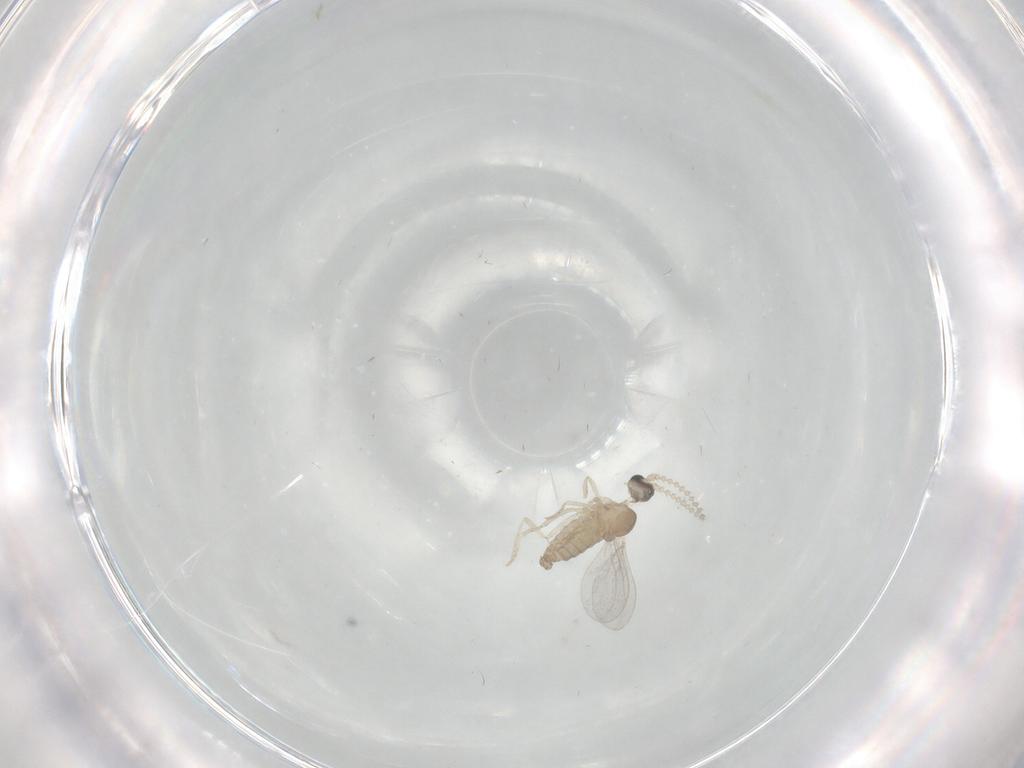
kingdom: Animalia
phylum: Arthropoda
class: Insecta
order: Diptera
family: Cecidomyiidae
